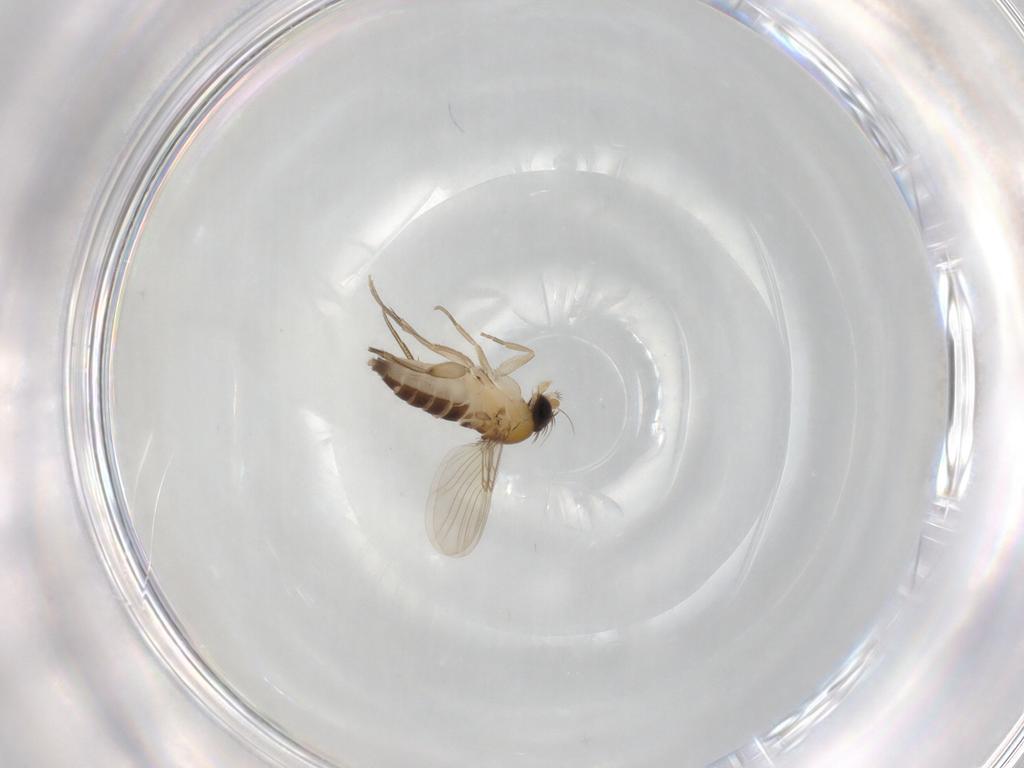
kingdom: Animalia
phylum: Arthropoda
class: Insecta
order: Diptera
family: Phoridae
